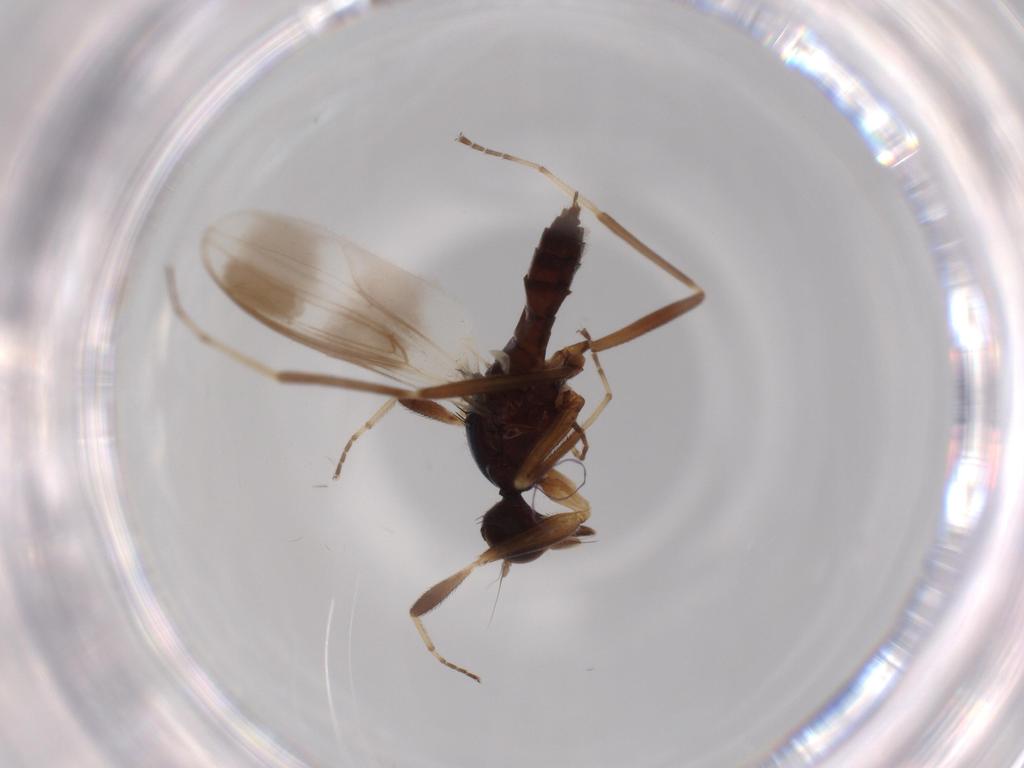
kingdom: Animalia
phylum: Arthropoda
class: Insecta
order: Diptera
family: Hybotidae
